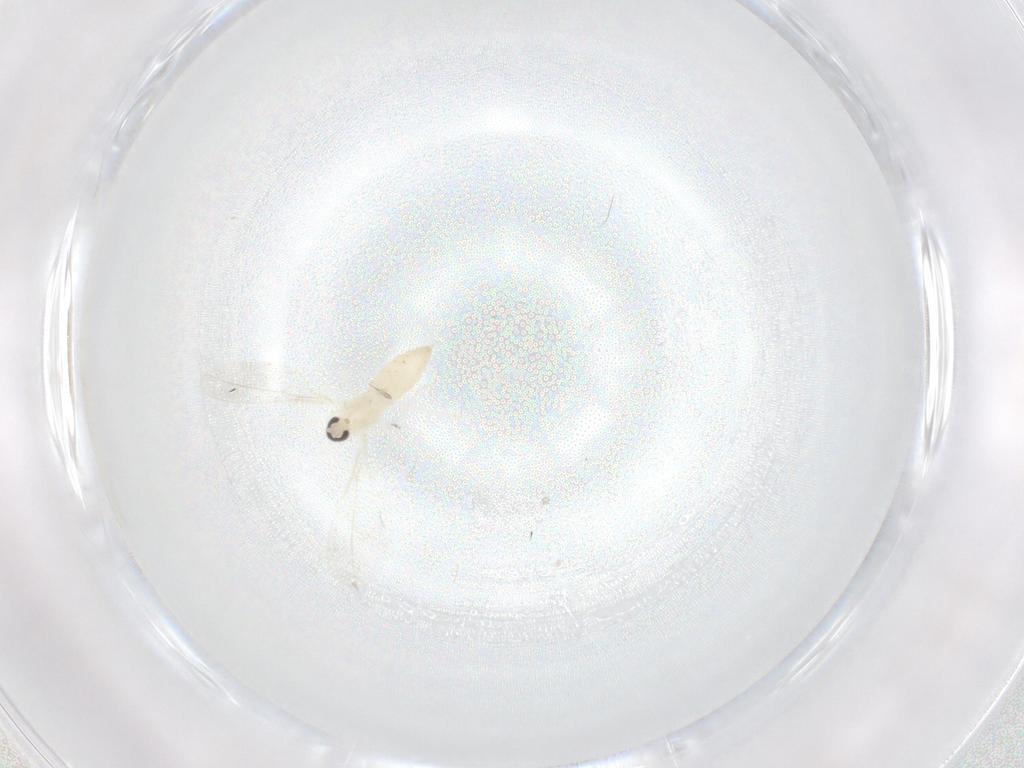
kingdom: Animalia
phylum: Arthropoda
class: Insecta
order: Diptera
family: Cecidomyiidae
